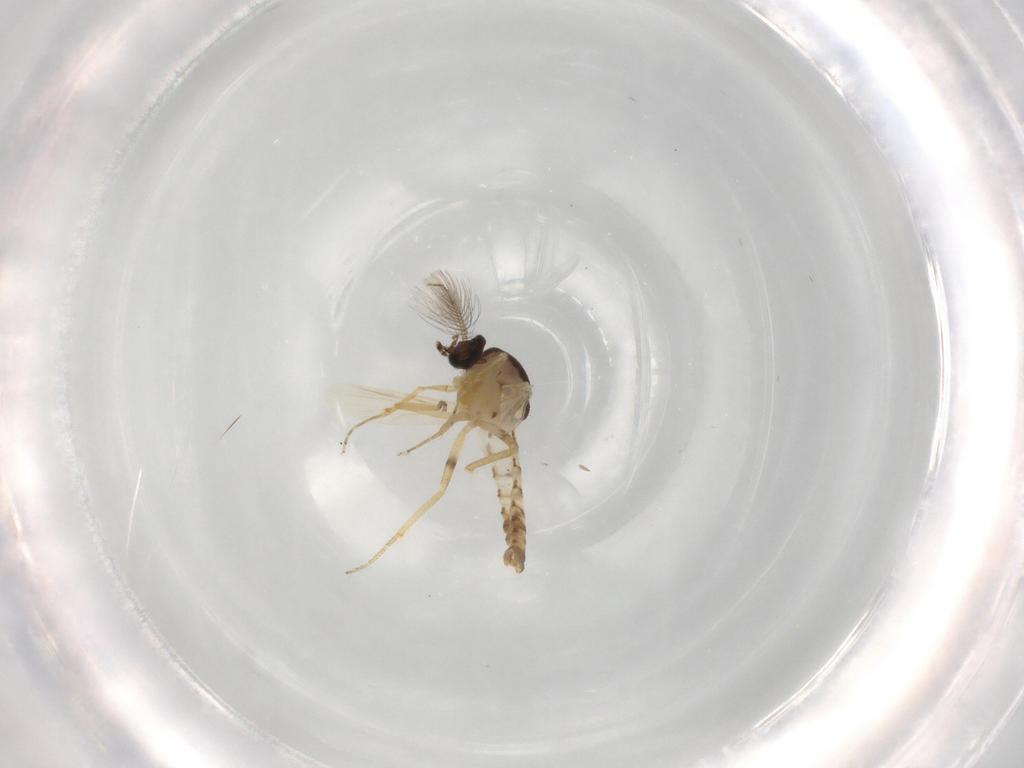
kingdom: Animalia
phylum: Arthropoda
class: Insecta
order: Diptera
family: Ceratopogonidae
